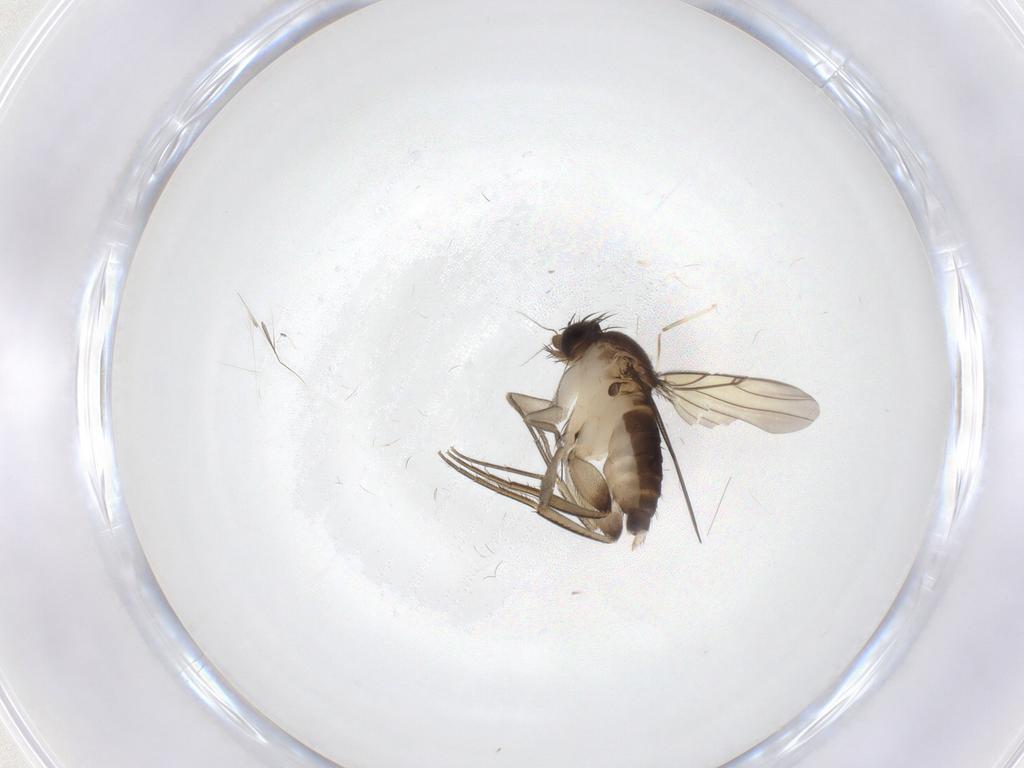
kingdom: Animalia
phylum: Arthropoda
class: Insecta
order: Diptera
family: Phoridae
